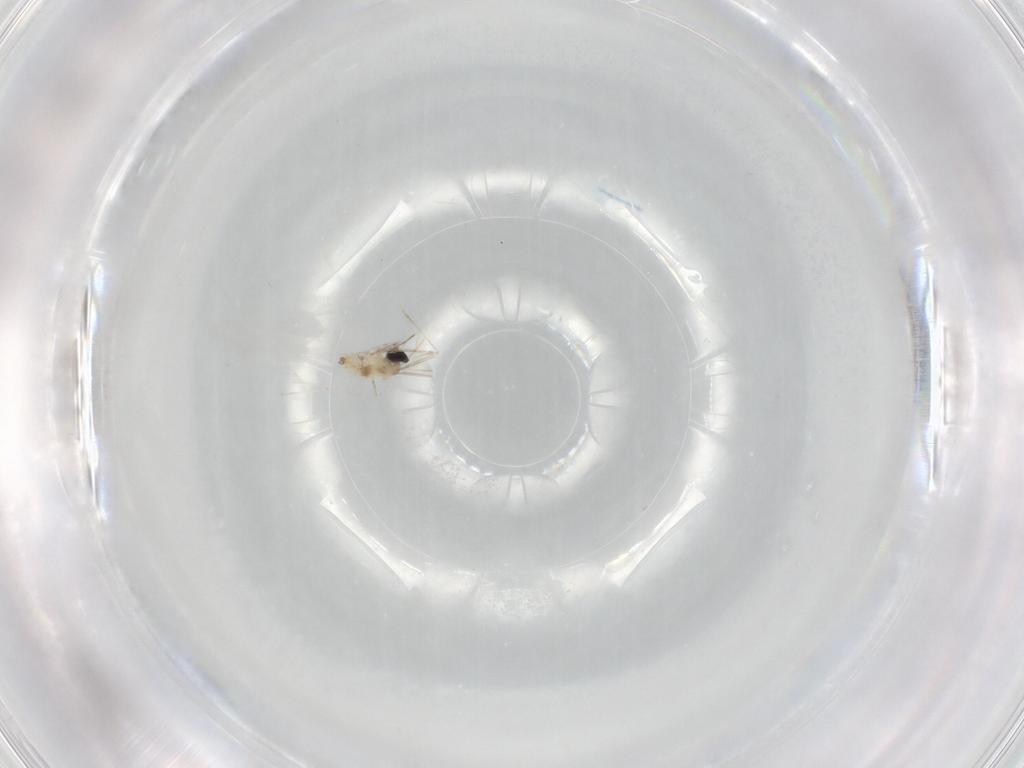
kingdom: Animalia
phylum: Arthropoda
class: Insecta
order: Diptera
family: Cecidomyiidae
